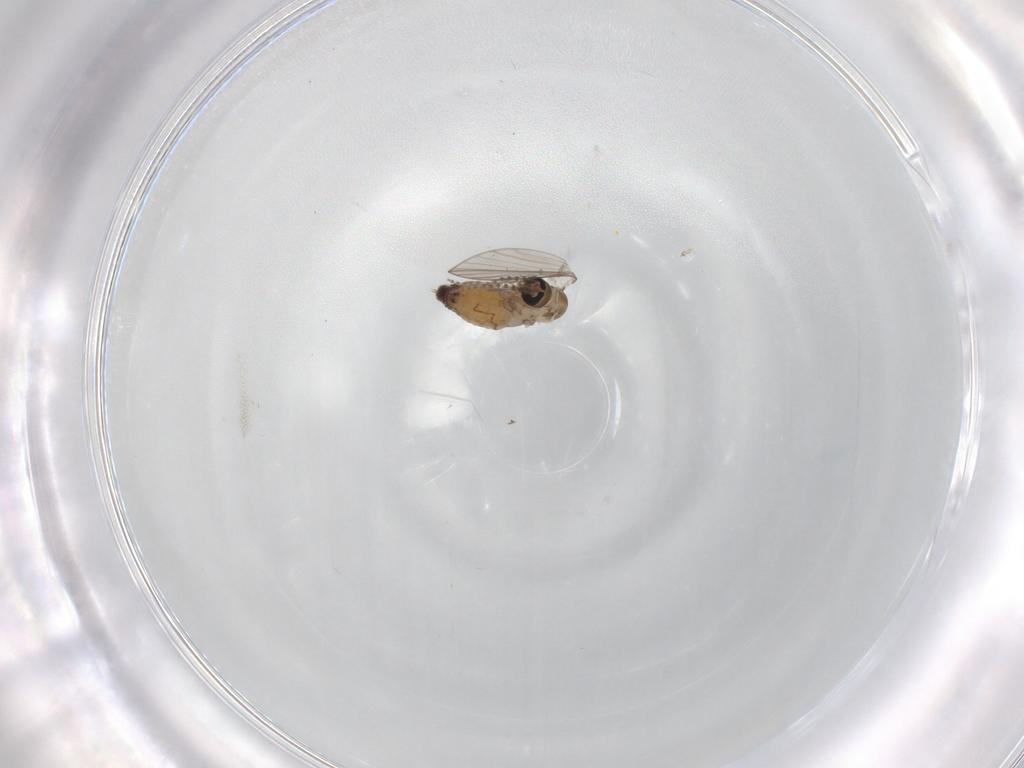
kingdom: Animalia
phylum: Arthropoda
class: Insecta
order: Diptera
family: Psychodidae
